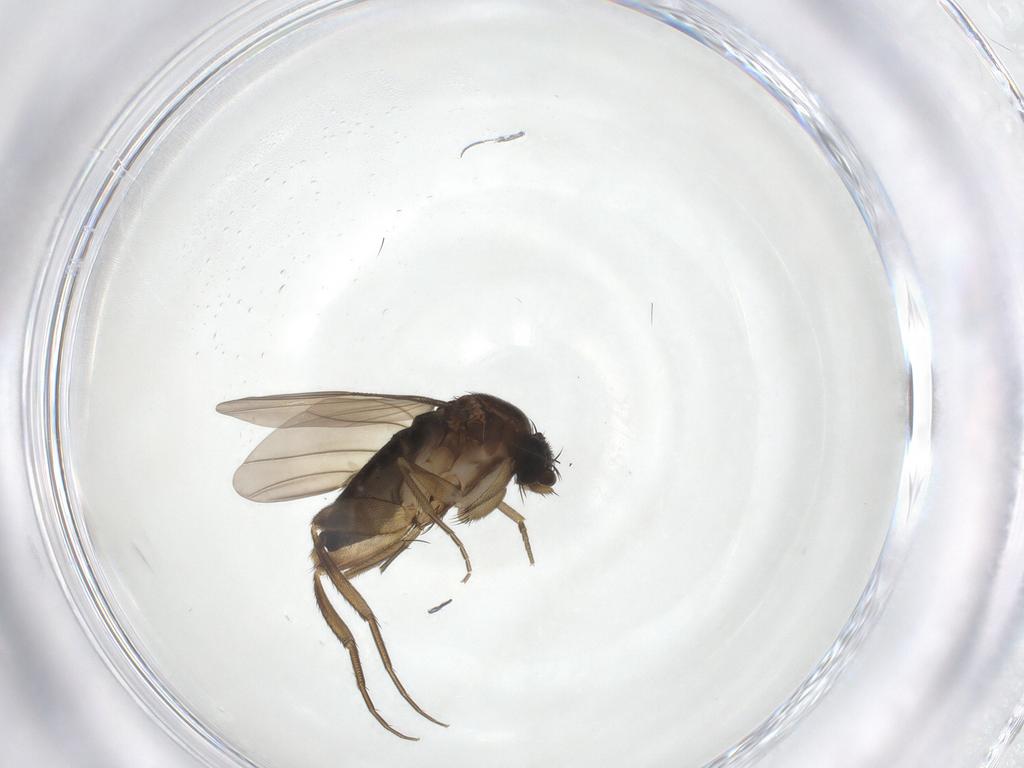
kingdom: Animalia
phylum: Arthropoda
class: Insecta
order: Diptera
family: Phoridae
